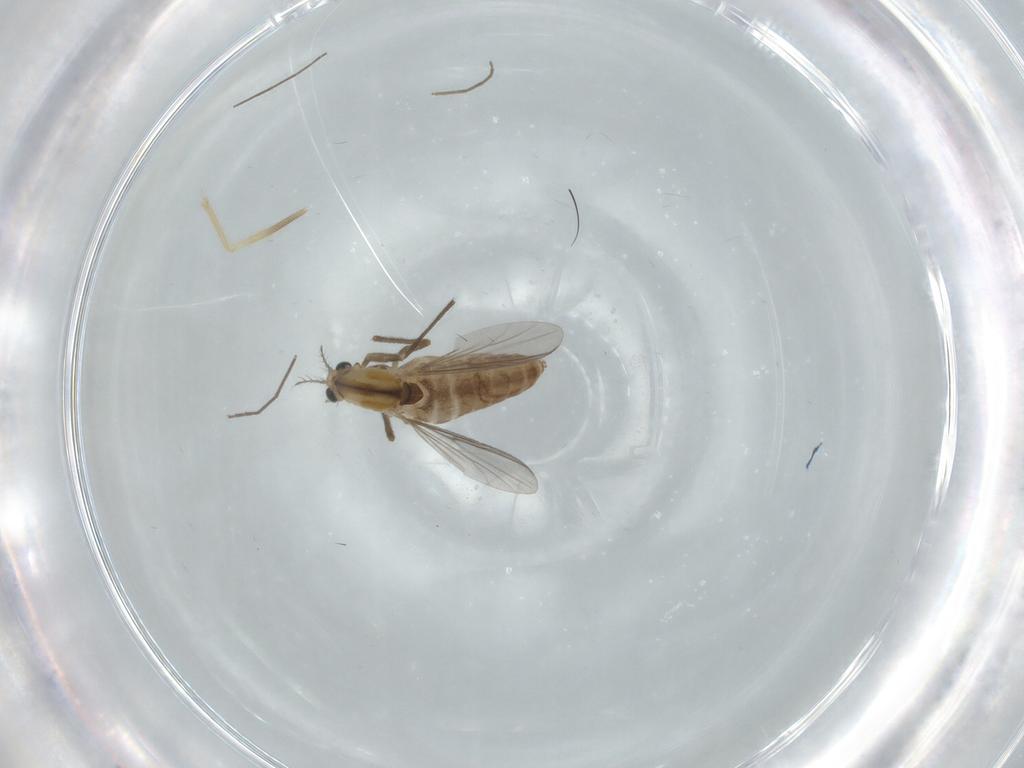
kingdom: Animalia
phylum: Arthropoda
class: Insecta
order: Diptera
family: Chironomidae
